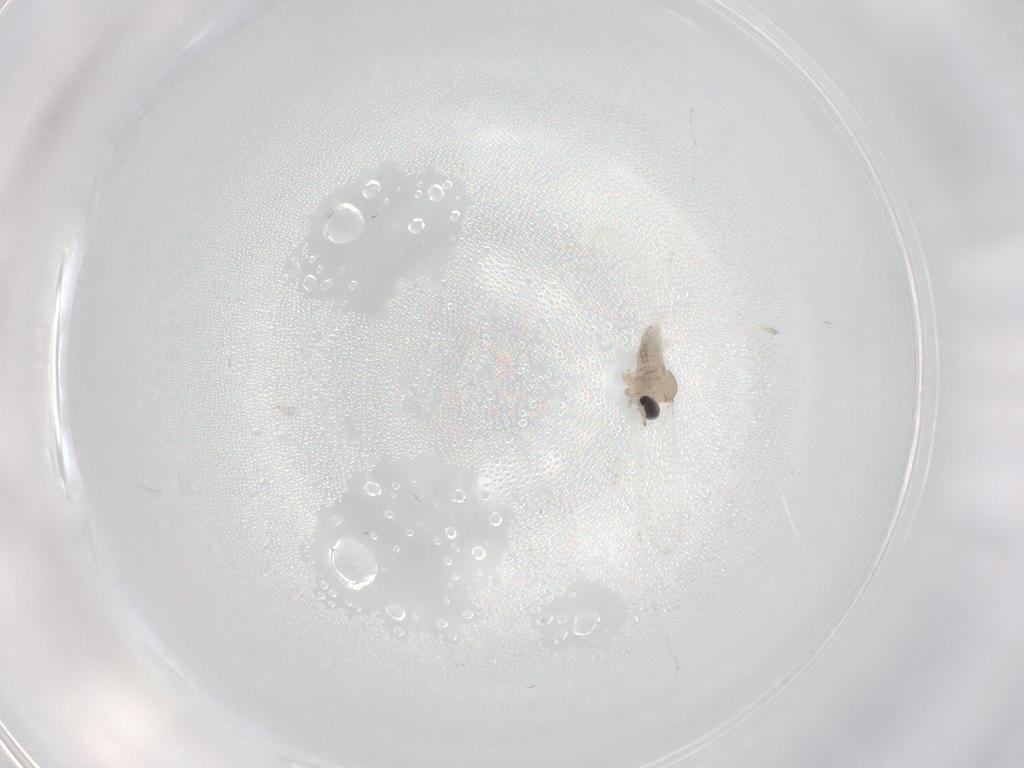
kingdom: Animalia
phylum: Arthropoda
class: Insecta
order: Diptera
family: Cecidomyiidae
